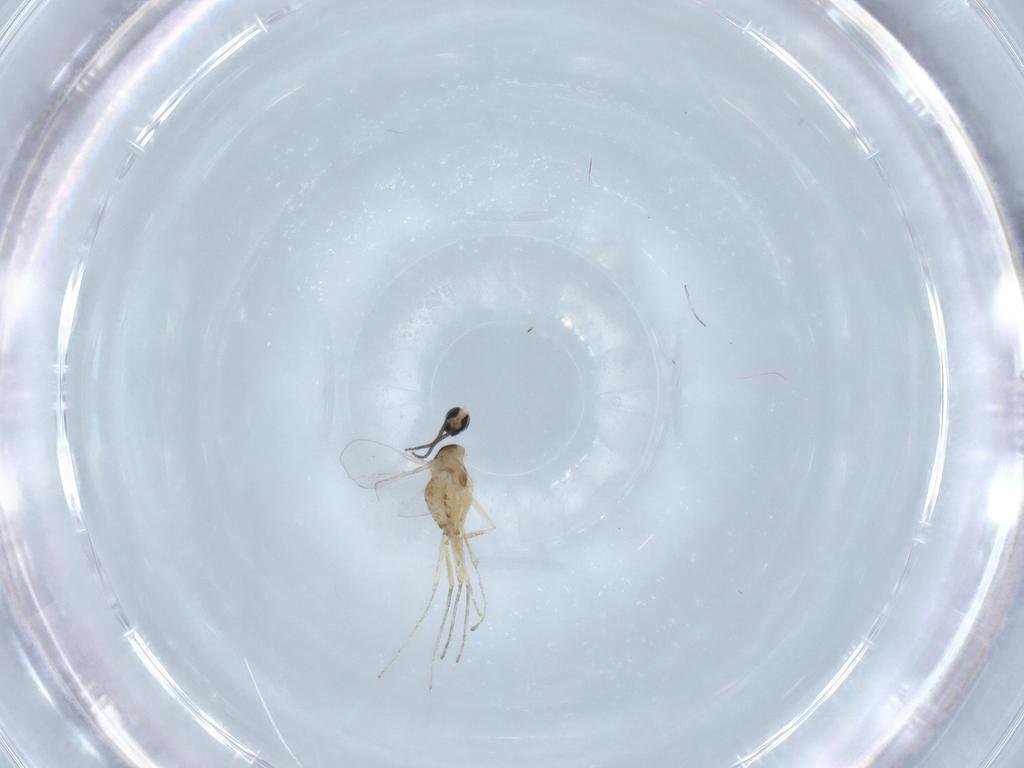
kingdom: Animalia
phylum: Arthropoda
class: Insecta
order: Diptera
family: Cecidomyiidae
